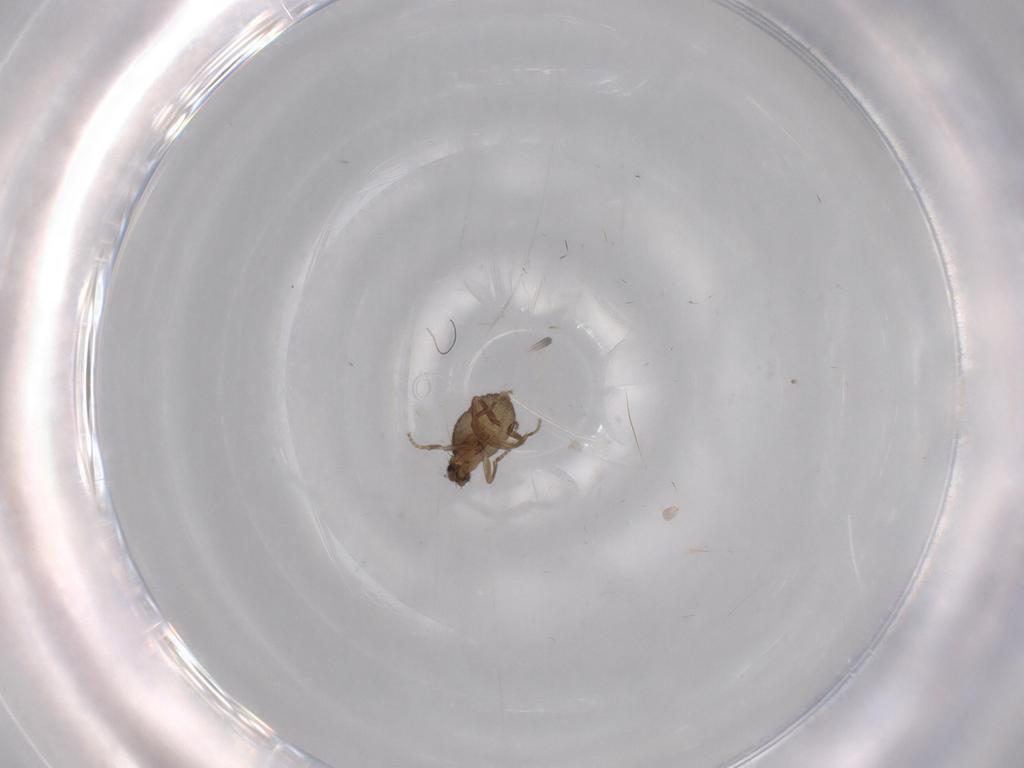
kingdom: Animalia
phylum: Arthropoda
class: Insecta
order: Diptera
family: Phoridae
